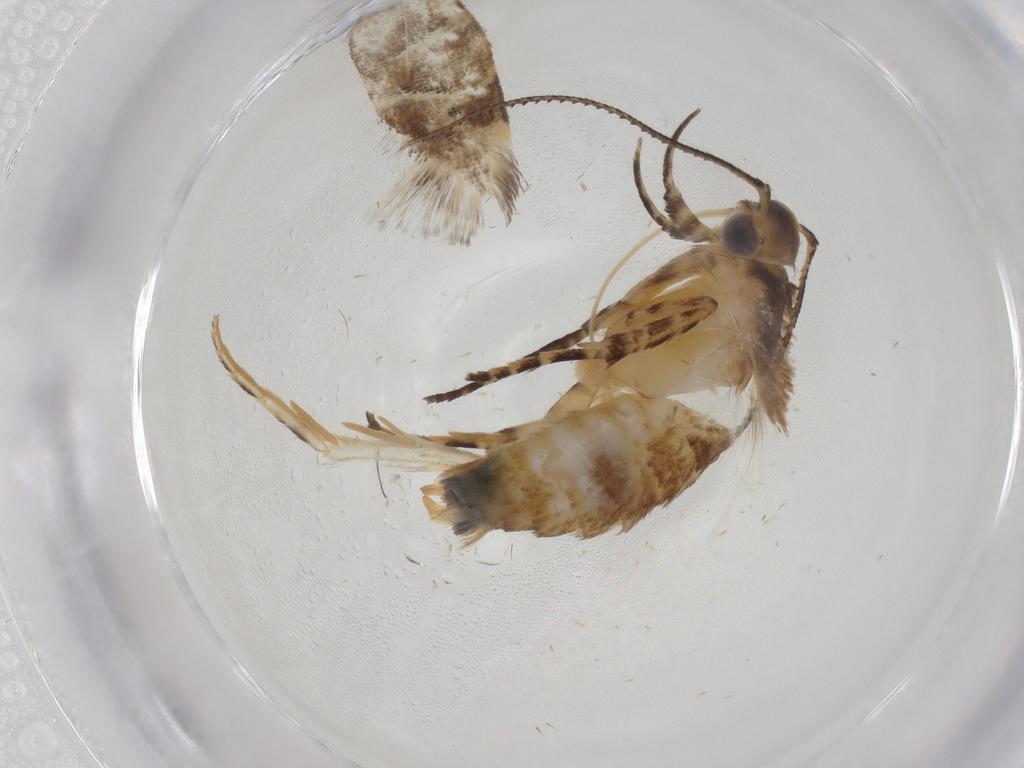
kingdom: Animalia
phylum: Arthropoda
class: Insecta
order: Lepidoptera
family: Gelechiidae
